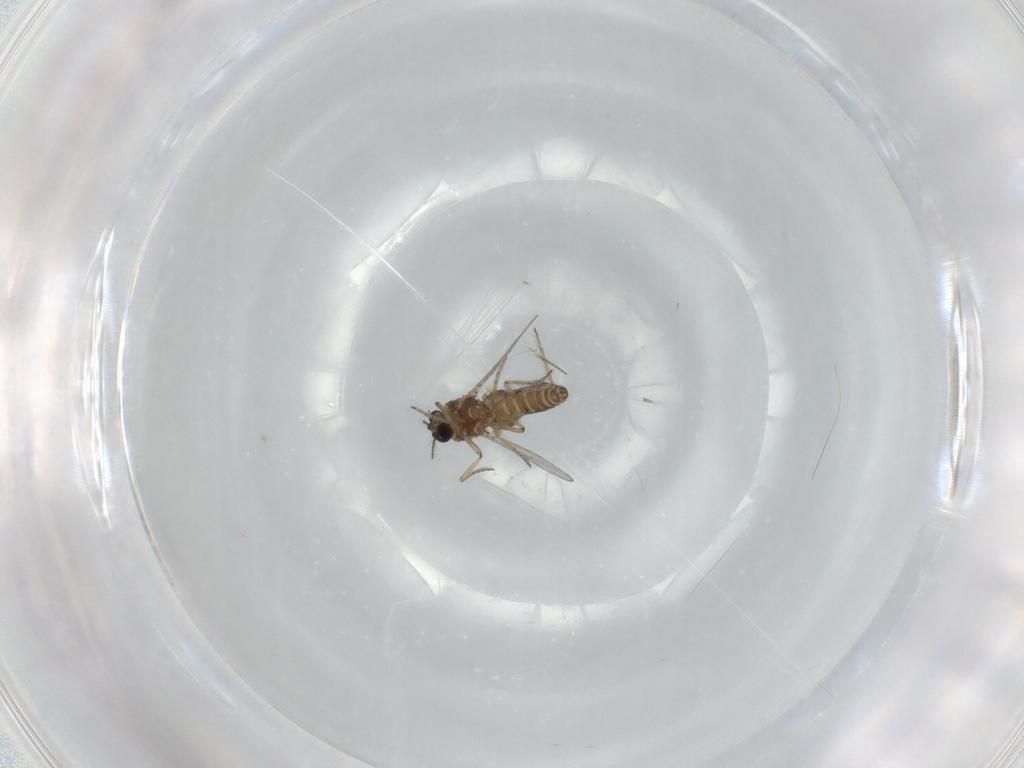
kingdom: Animalia
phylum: Arthropoda
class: Insecta
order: Diptera
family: Ceratopogonidae
